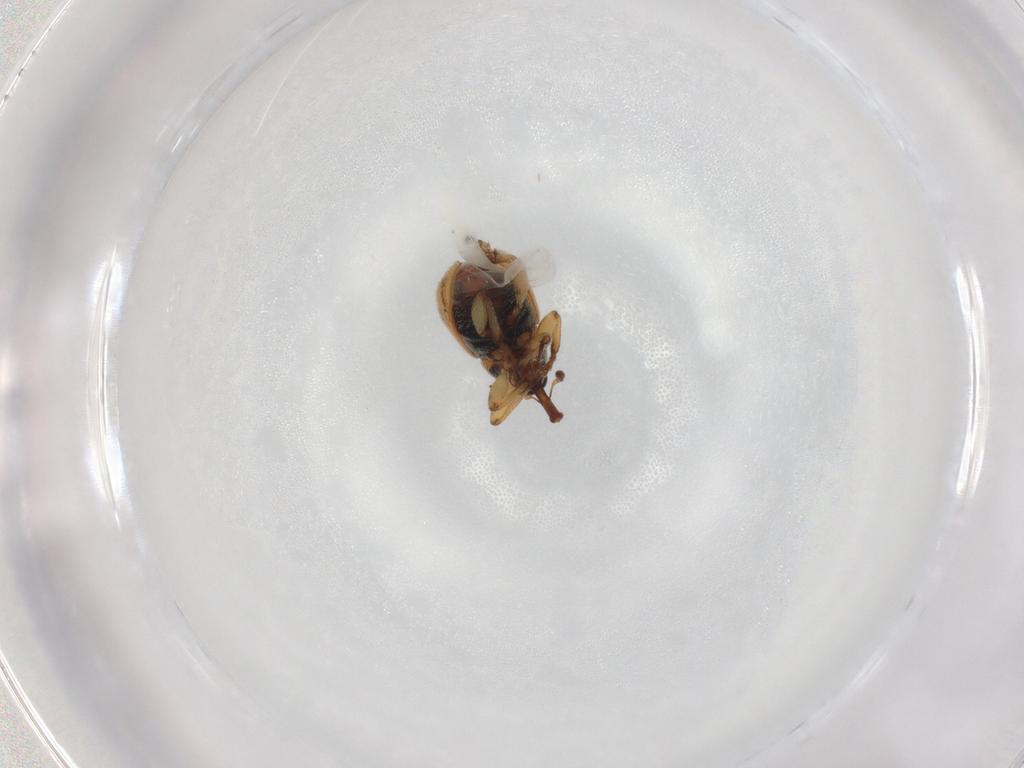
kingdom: Animalia
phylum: Arthropoda
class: Insecta
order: Coleoptera
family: Brentidae
